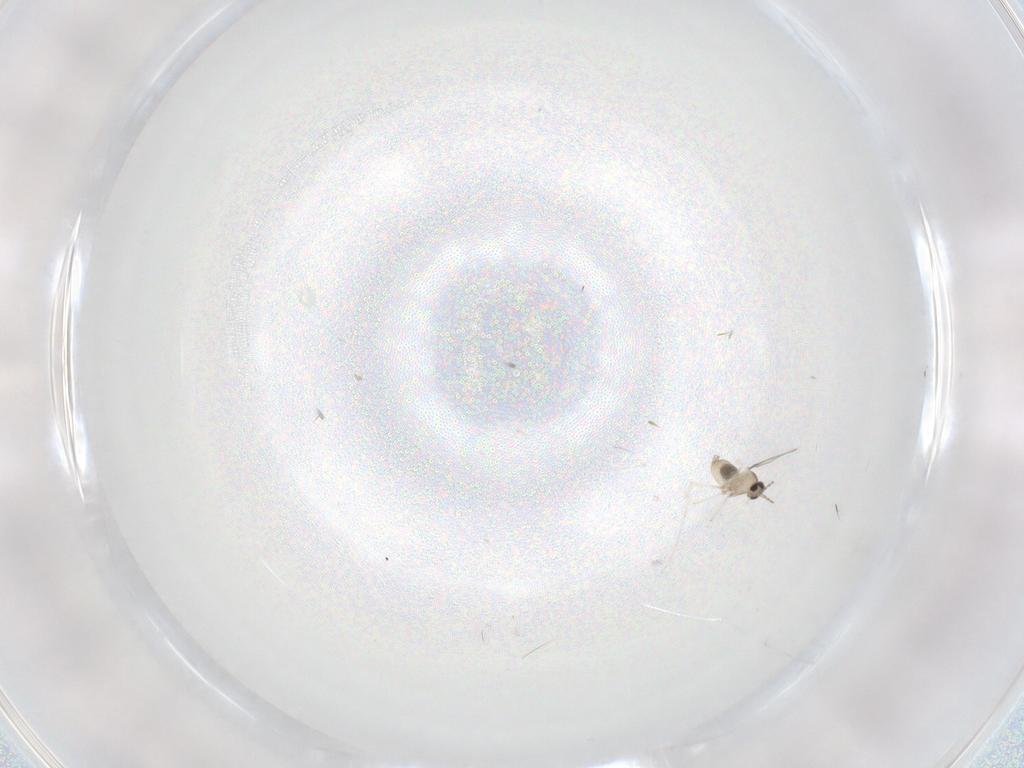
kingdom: Animalia
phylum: Arthropoda
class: Insecta
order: Diptera
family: Cecidomyiidae
